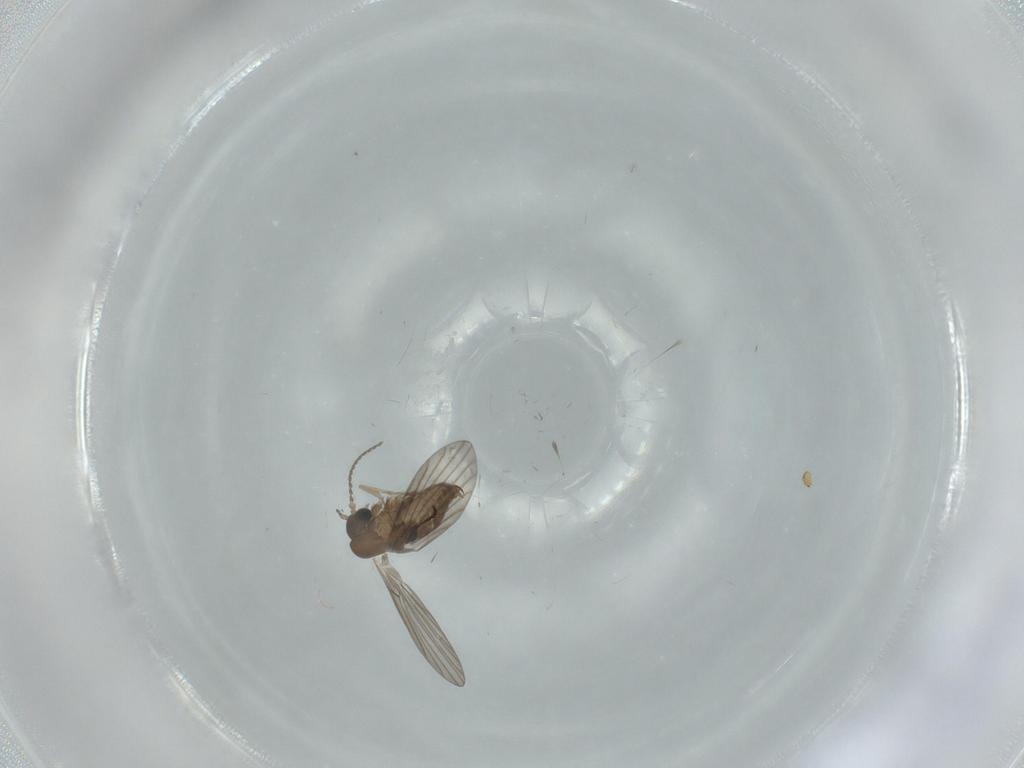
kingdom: Animalia
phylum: Arthropoda
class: Insecta
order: Diptera
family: Psychodidae
